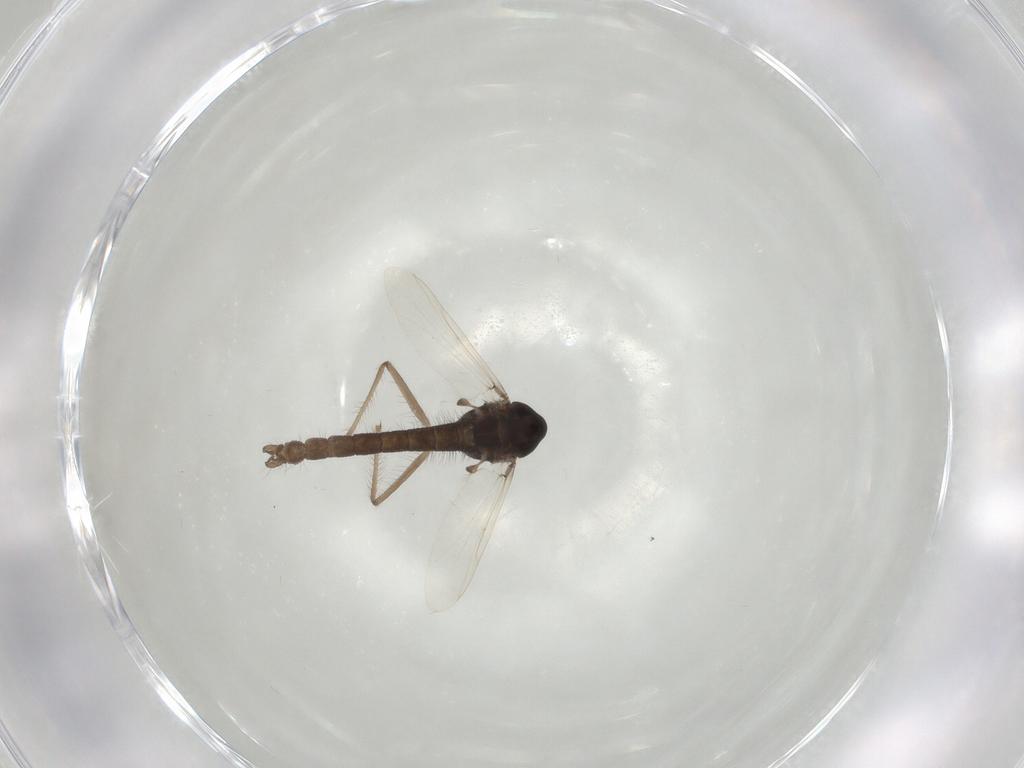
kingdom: Animalia
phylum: Arthropoda
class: Insecta
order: Diptera
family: Chironomidae
